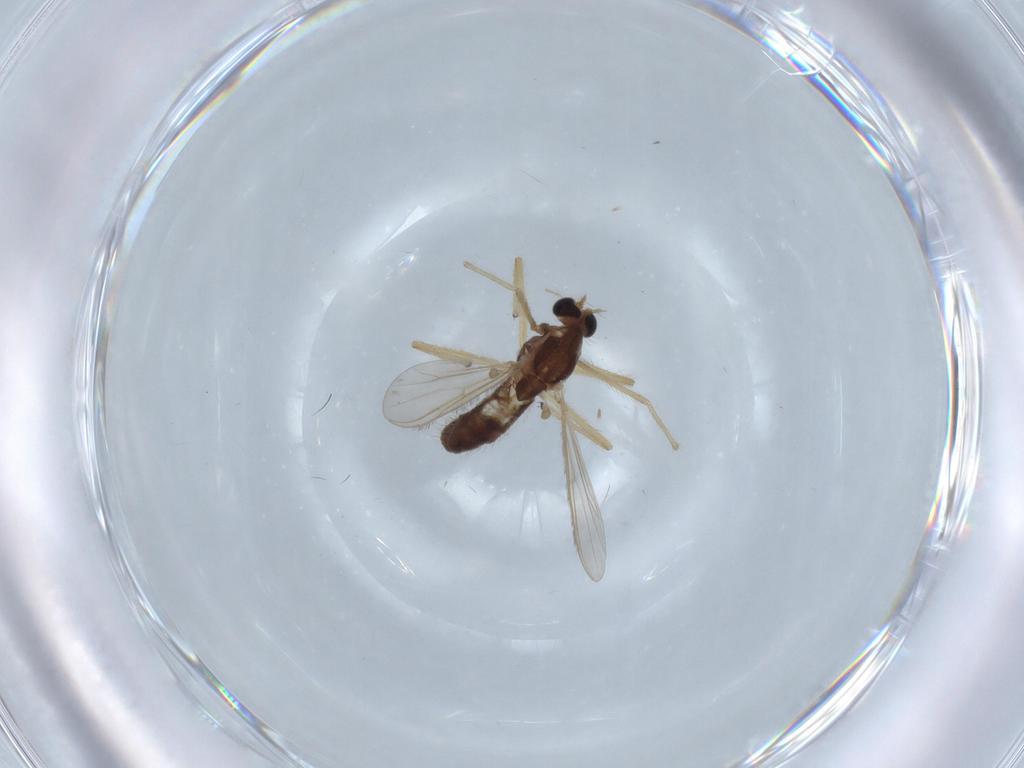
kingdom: Animalia
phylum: Arthropoda
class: Insecta
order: Diptera
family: Chironomidae
